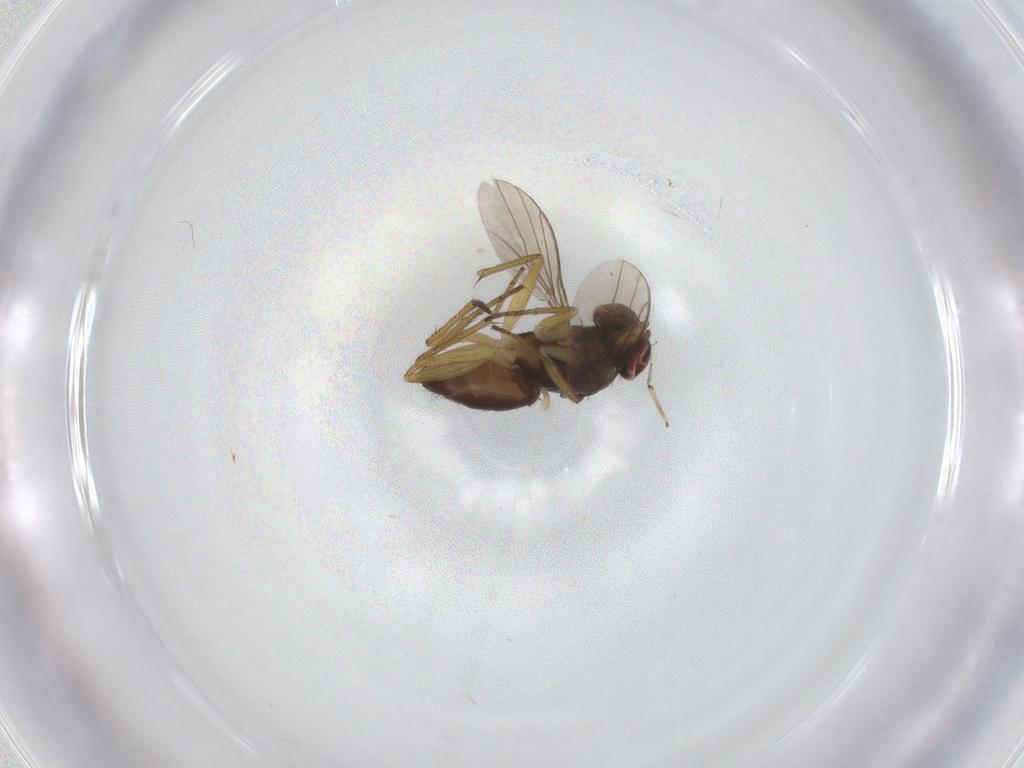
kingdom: Animalia
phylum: Arthropoda
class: Insecta
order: Diptera
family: Dolichopodidae
